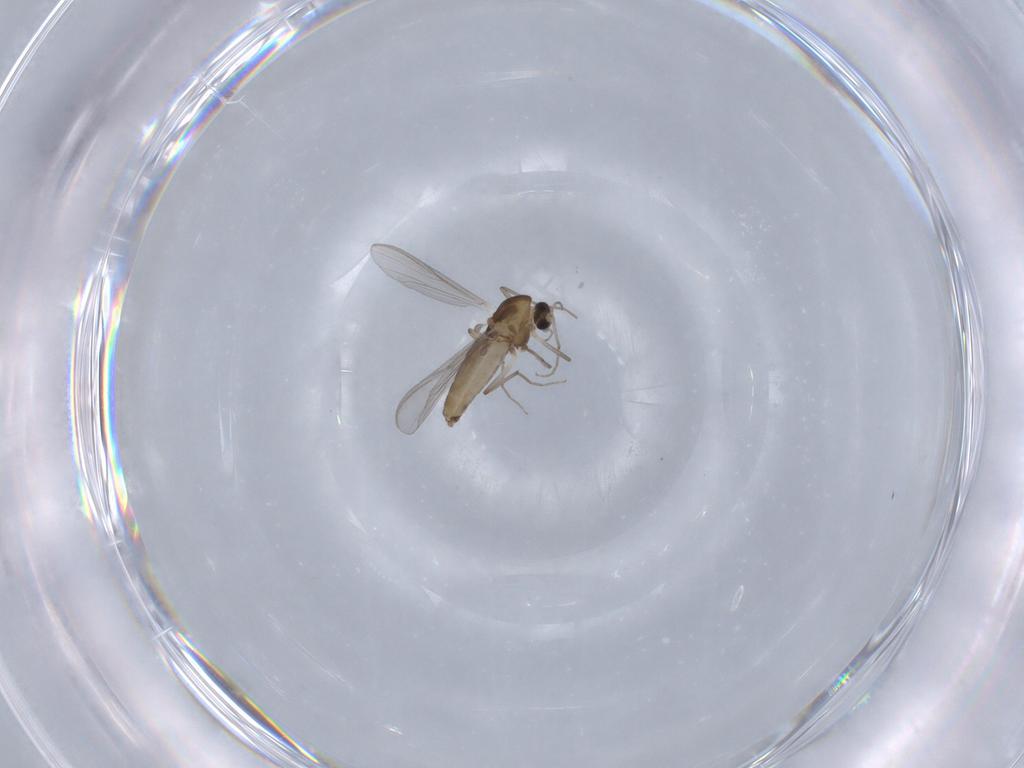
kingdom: Animalia
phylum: Arthropoda
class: Insecta
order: Diptera
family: Chironomidae
